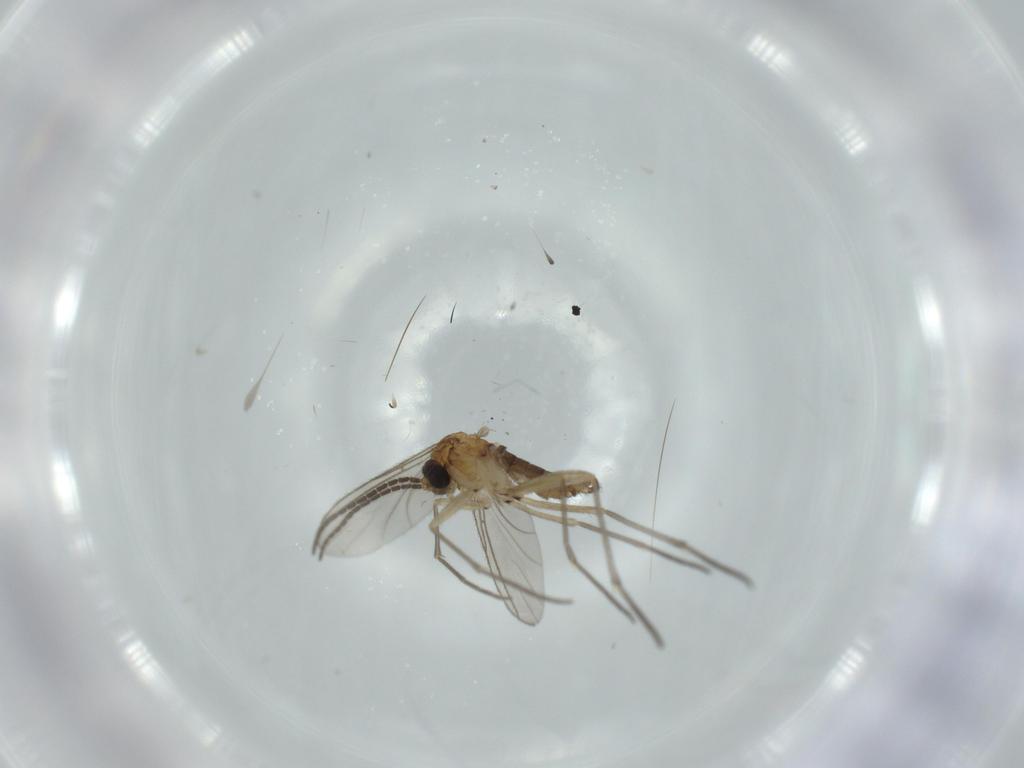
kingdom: Animalia
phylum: Arthropoda
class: Insecta
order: Diptera
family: Sciaridae
